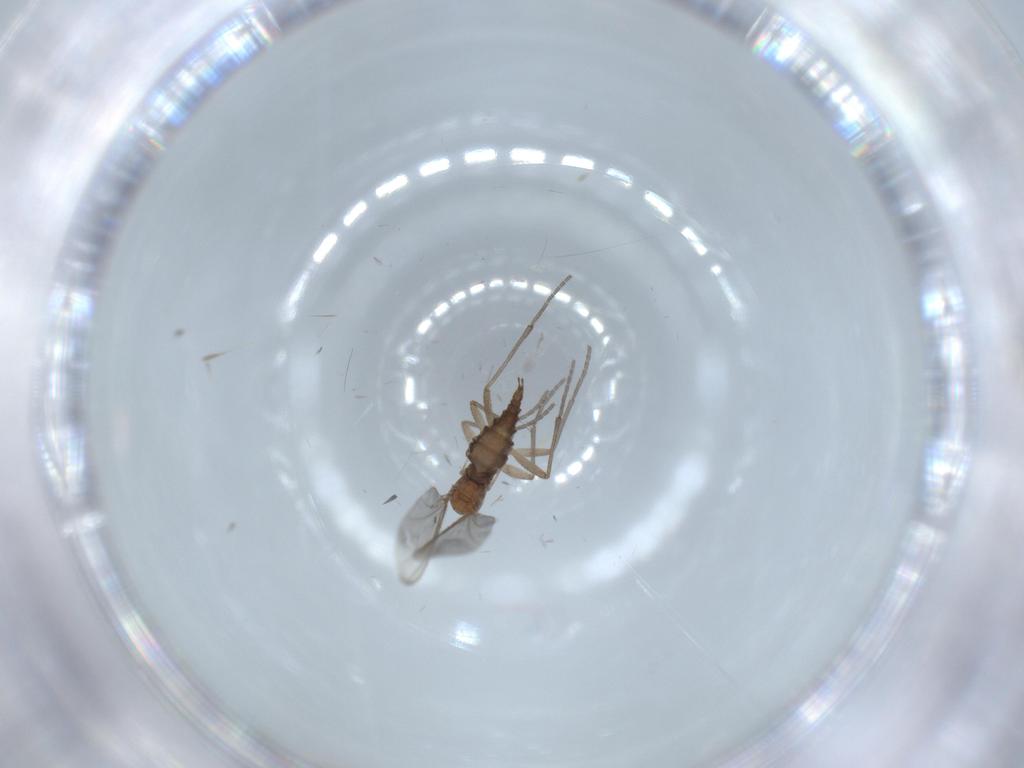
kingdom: Animalia
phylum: Arthropoda
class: Insecta
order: Diptera
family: Sciaridae
